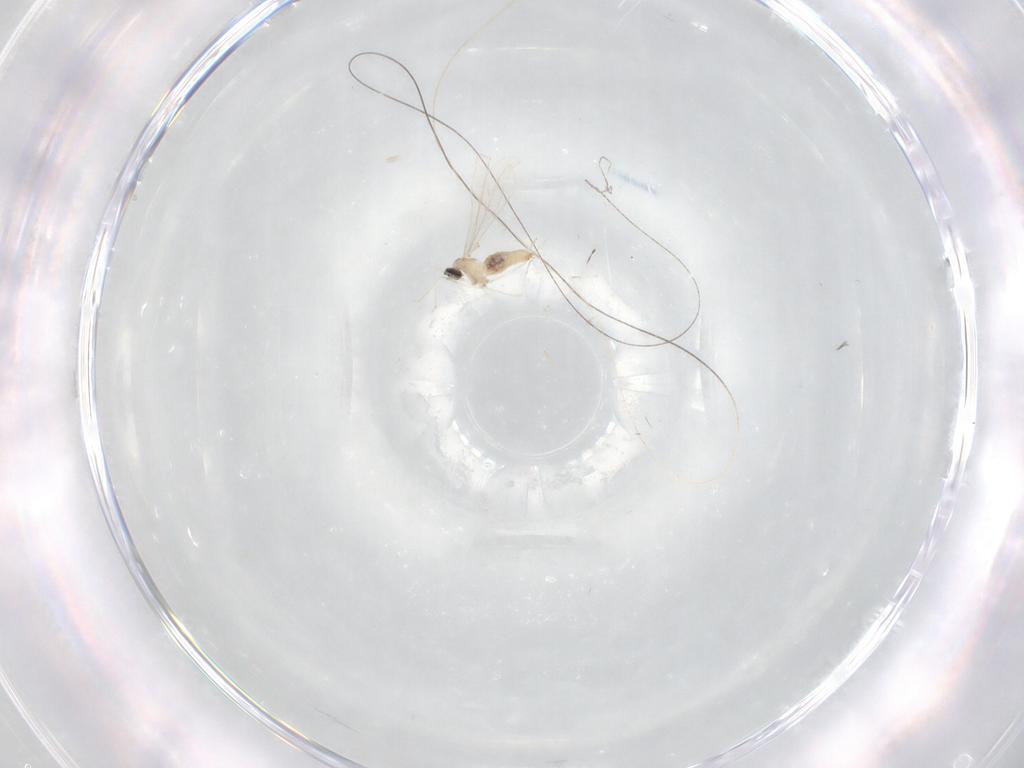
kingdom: Animalia
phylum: Arthropoda
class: Insecta
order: Diptera
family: Cecidomyiidae
